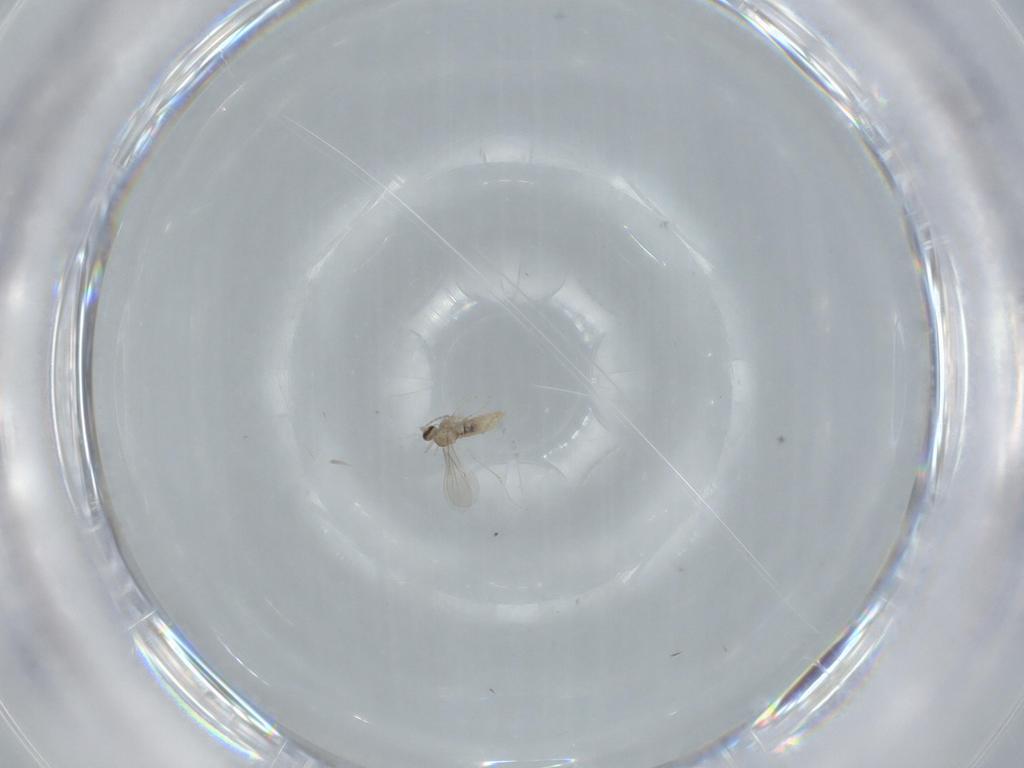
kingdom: Animalia
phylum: Arthropoda
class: Insecta
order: Diptera
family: Cecidomyiidae
